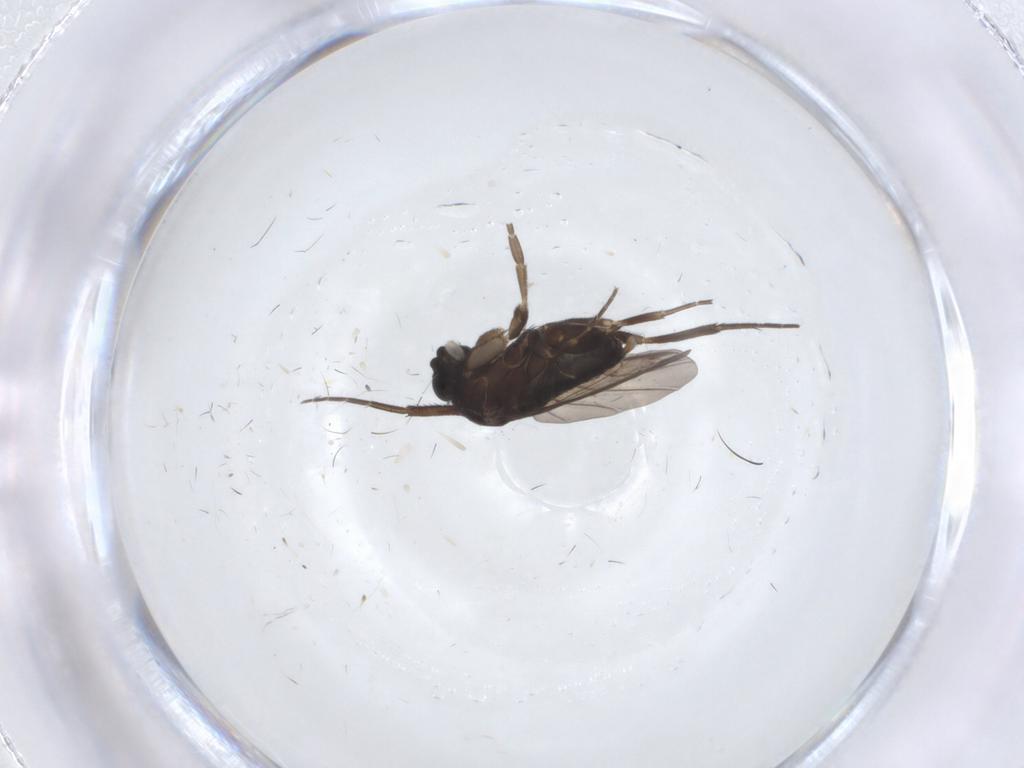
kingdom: Animalia
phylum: Arthropoda
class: Insecta
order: Diptera
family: Phoridae
